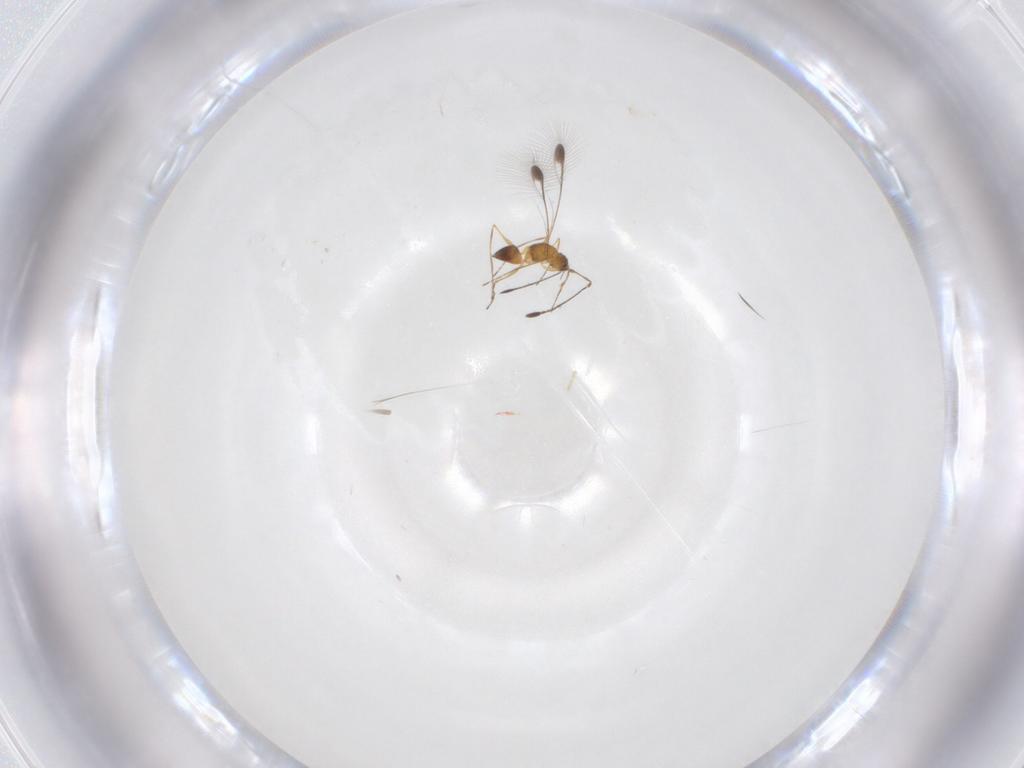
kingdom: Animalia
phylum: Arthropoda
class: Insecta
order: Hymenoptera
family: Mymaridae
